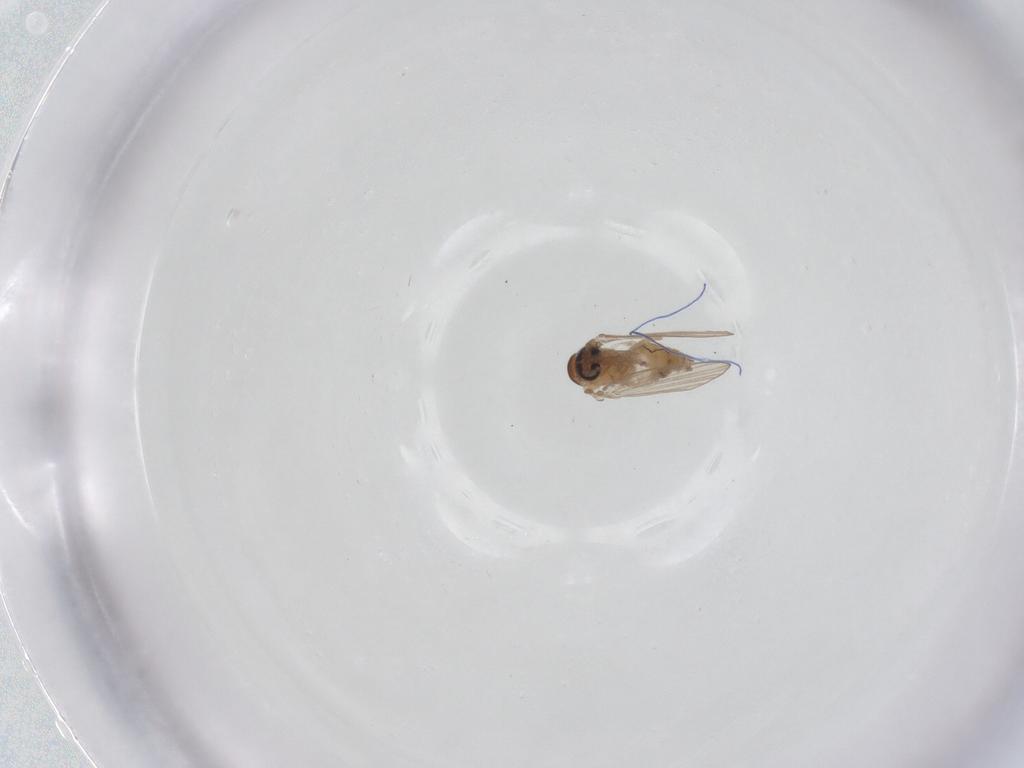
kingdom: Animalia
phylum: Arthropoda
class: Insecta
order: Diptera
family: Psychodidae
